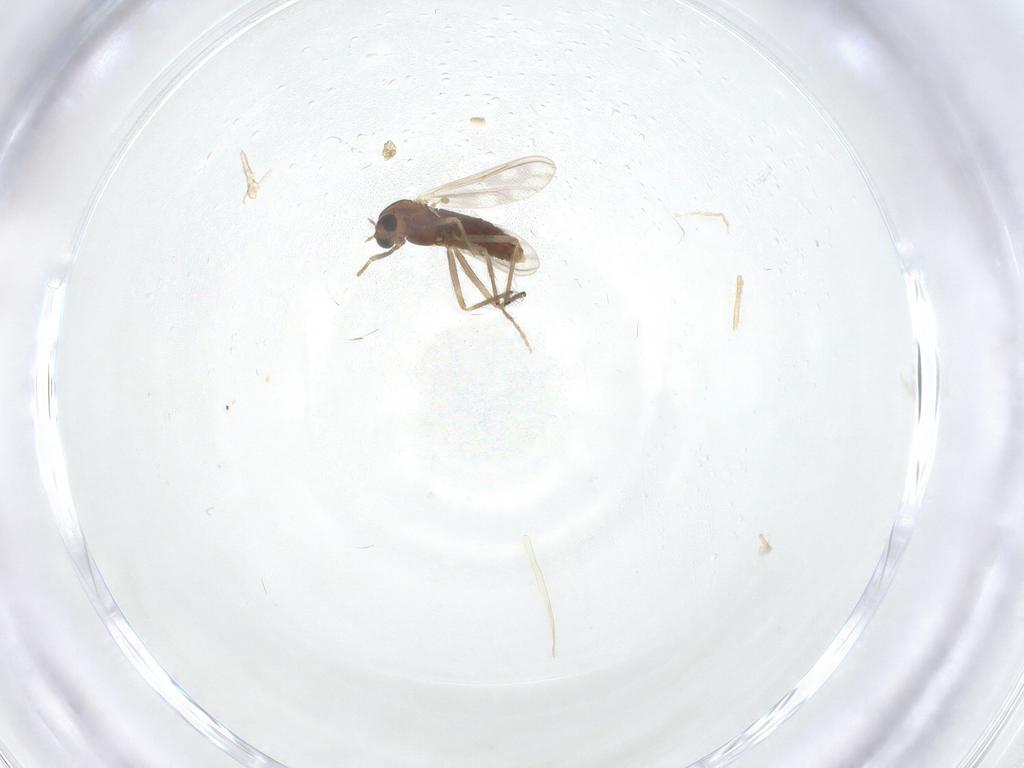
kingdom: Animalia
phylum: Arthropoda
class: Insecta
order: Diptera
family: Chironomidae
